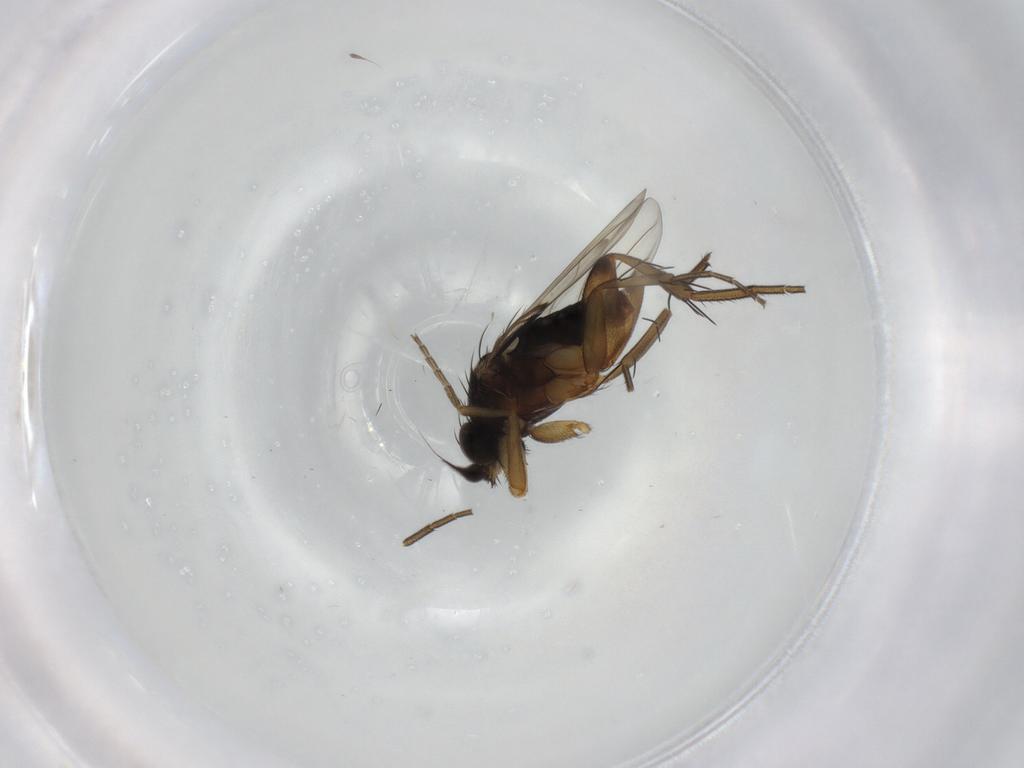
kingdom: Animalia
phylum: Arthropoda
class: Insecta
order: Diptera
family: Phoridae
